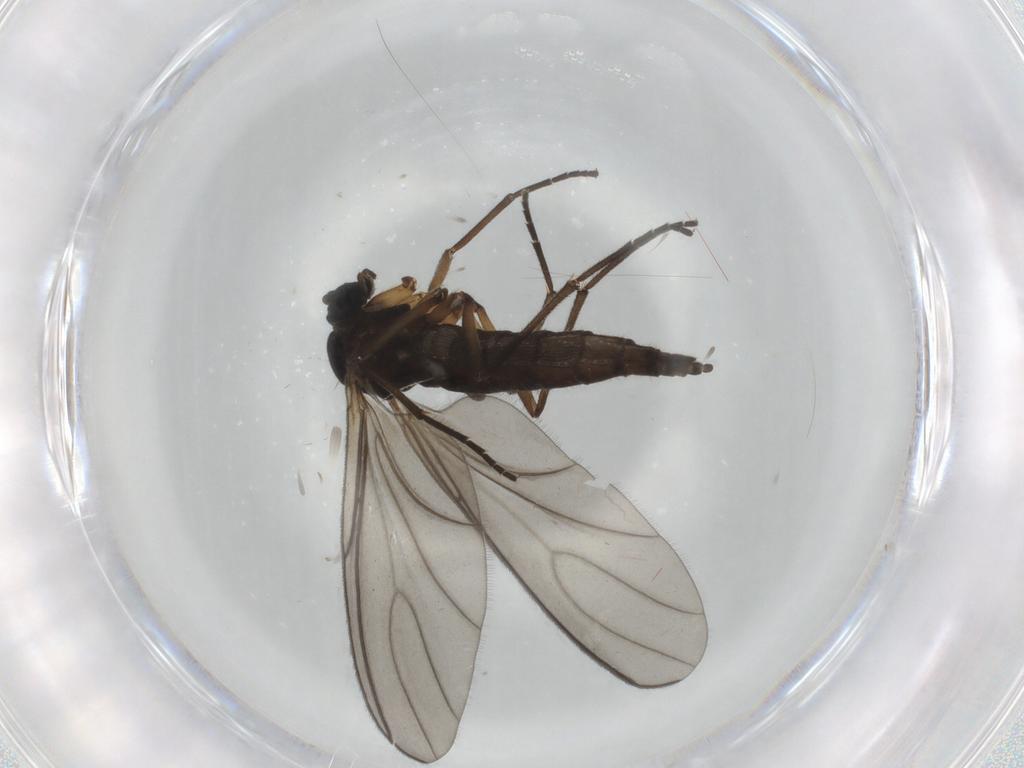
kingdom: Animalia
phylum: Arthropoda
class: Insecta
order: Diptera
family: Sciaridae
